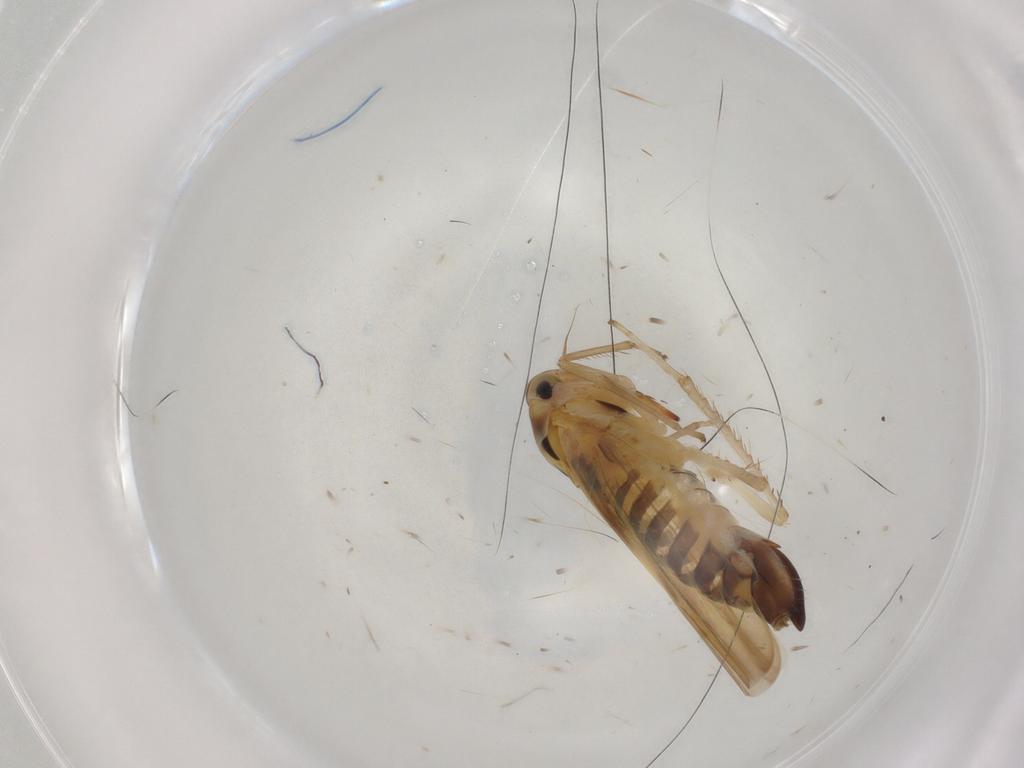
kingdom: Animalia
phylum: Arthropoda
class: Insecta
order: Hemiptera
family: Cicadellidae
